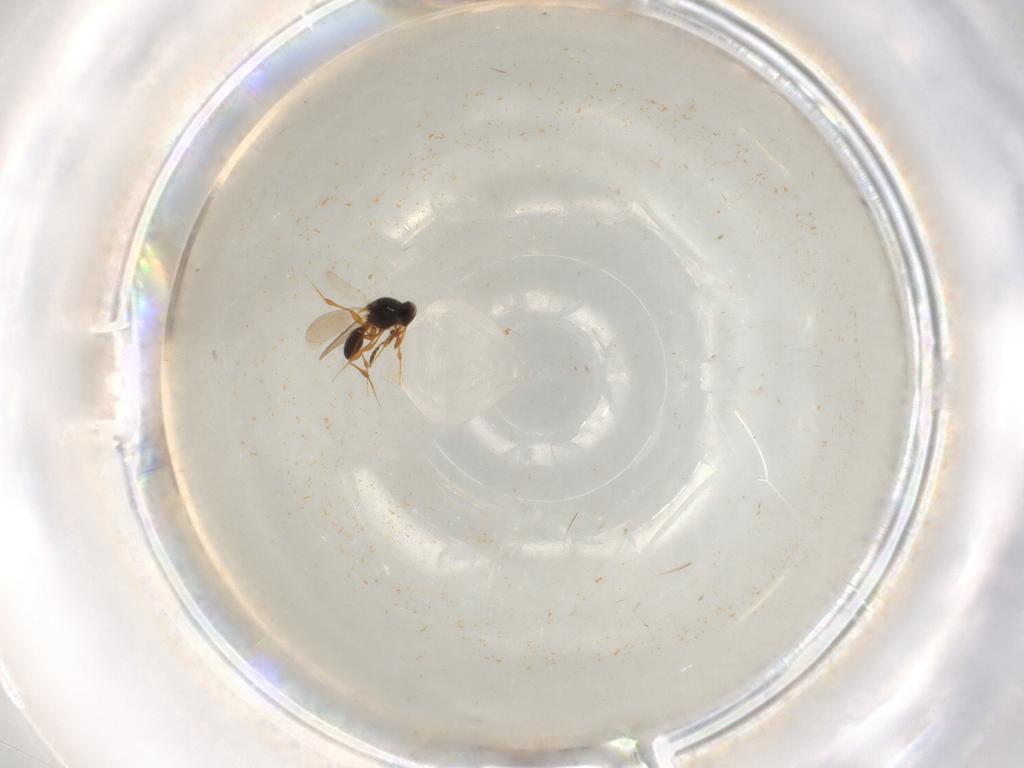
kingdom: Animalia
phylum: Arthropoda
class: Insecta
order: Hymenoptera
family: Platygastridae
